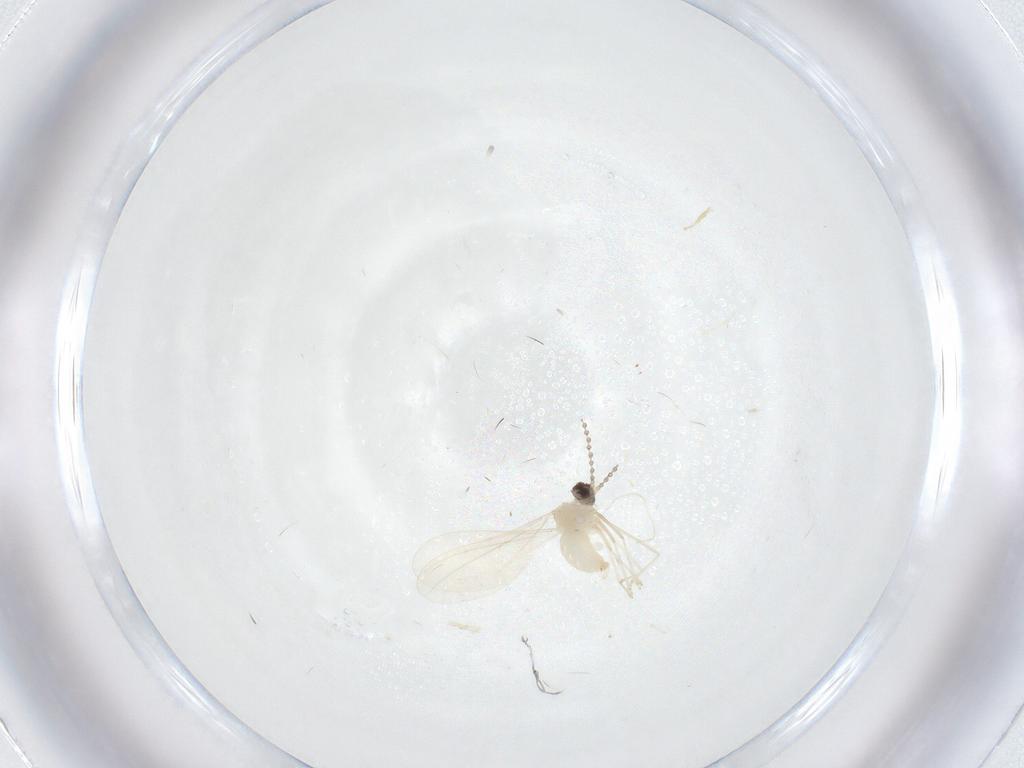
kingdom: Animalia
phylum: Arthropoda
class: Insecta
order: Diptera
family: Cecidomyiidae
